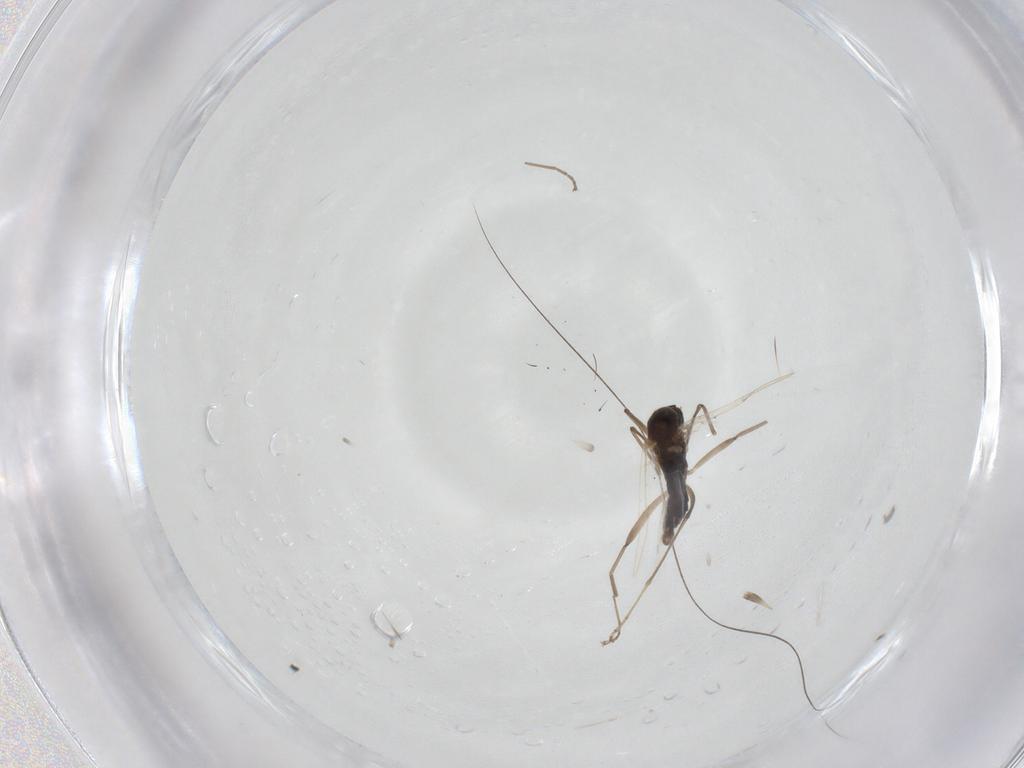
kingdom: Animalia
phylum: Arthropoda
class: Insecta
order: Diptera
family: Cecidomyiidae
